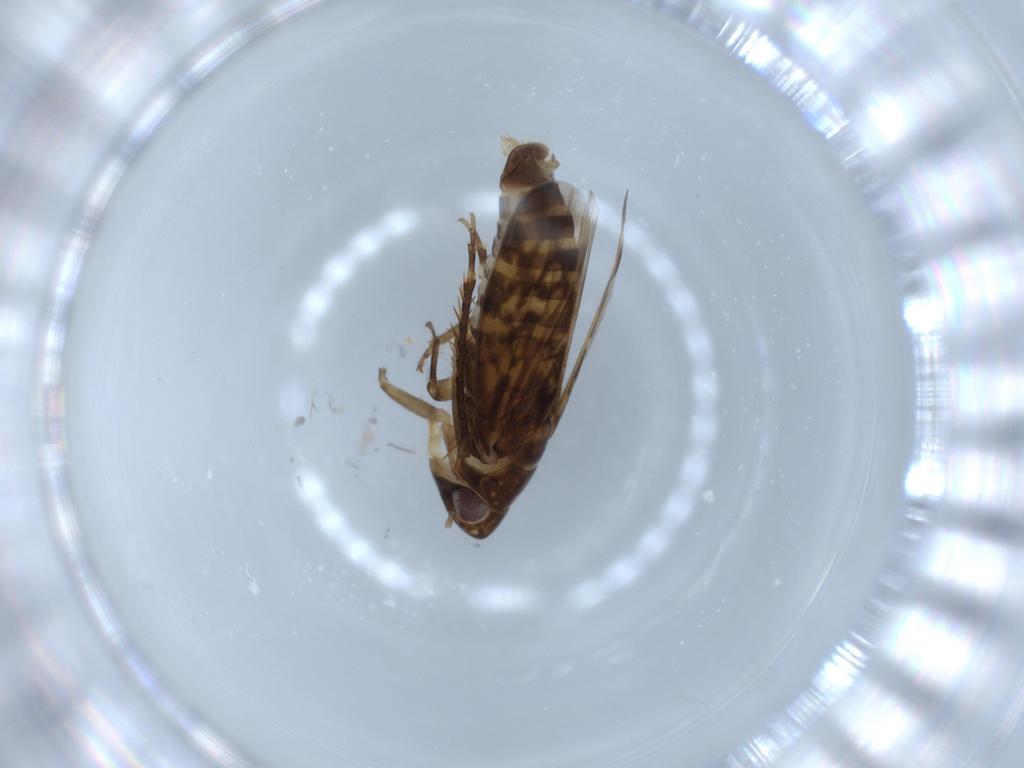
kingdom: Animalia
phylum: Arthropoda
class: Insecta
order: Hemiptera
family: Cicadellidae
